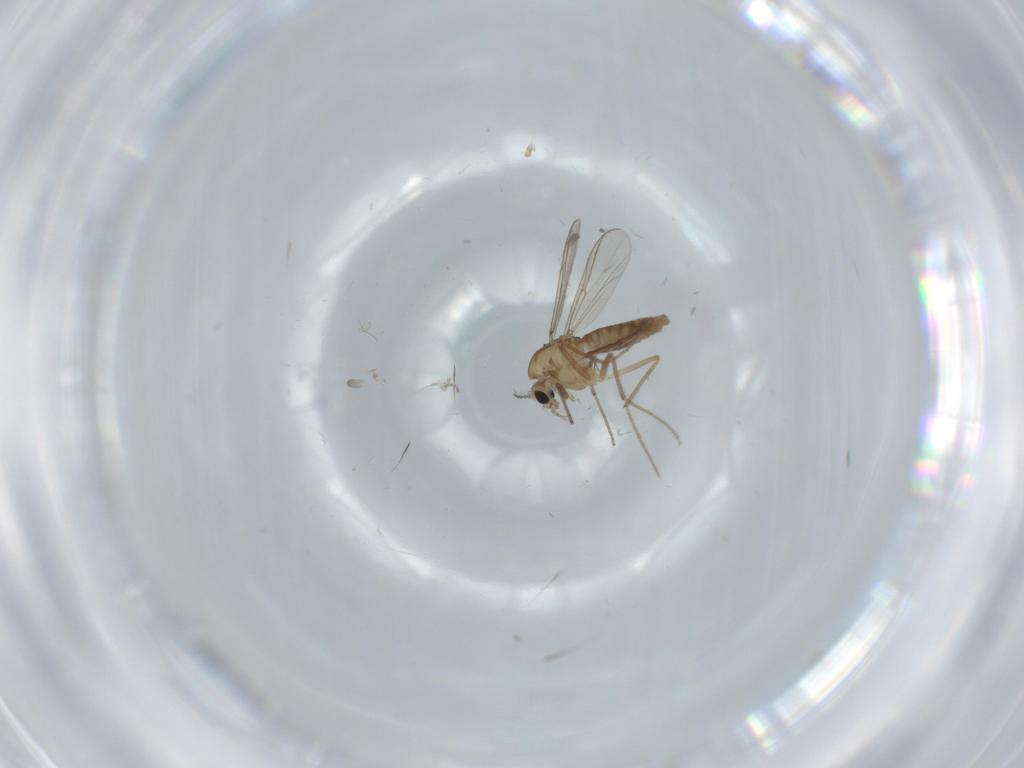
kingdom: Animalia
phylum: Arthropoda
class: Insecta
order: Diptera
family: Chironomidae
